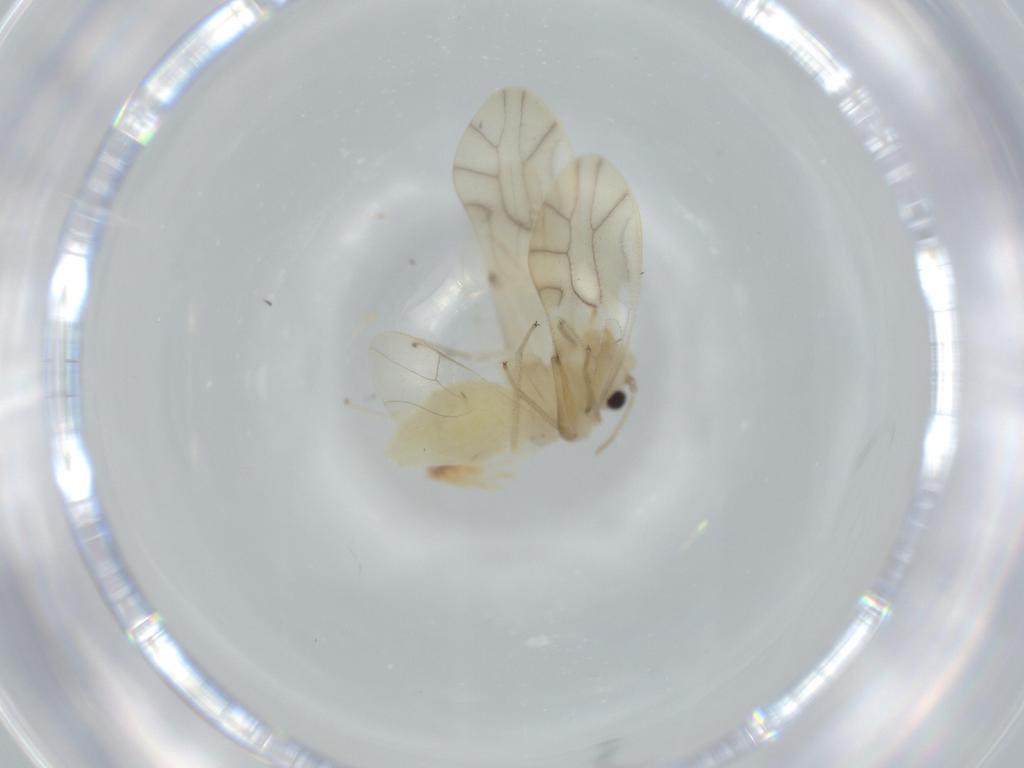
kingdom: Animalia
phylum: Arthropoda
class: Insecta
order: Psocodea
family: Caeciliusidae
